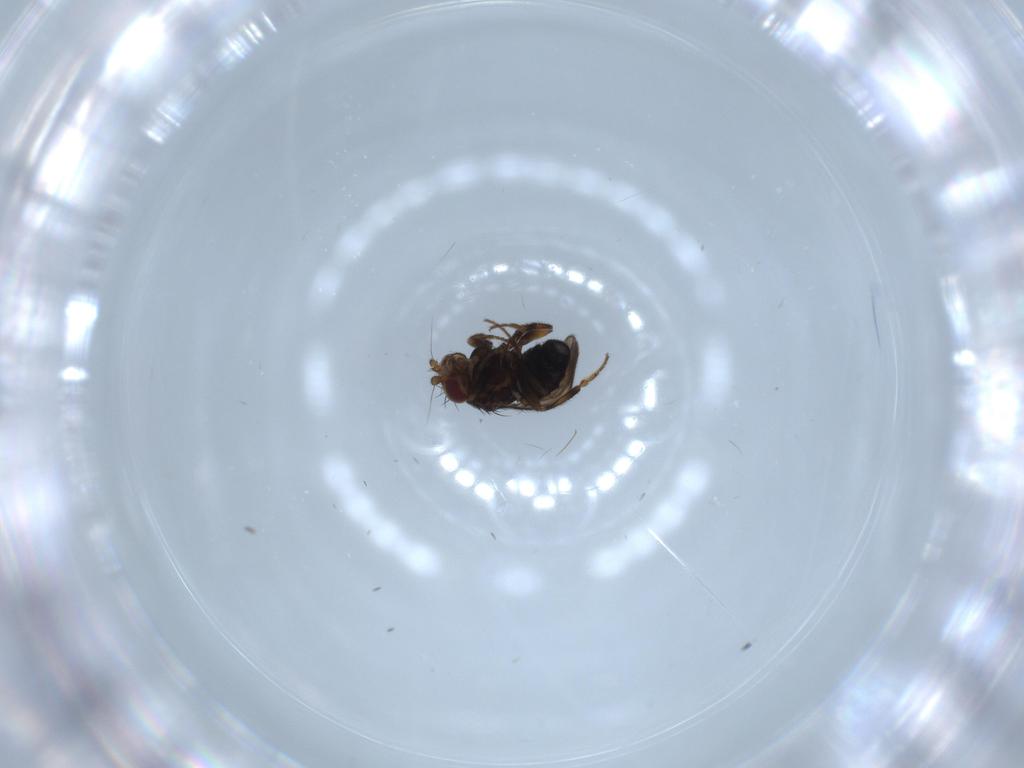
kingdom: Animalia
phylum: Arthropoda
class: Insecta
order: Diptera
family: Sphaeroceridae
